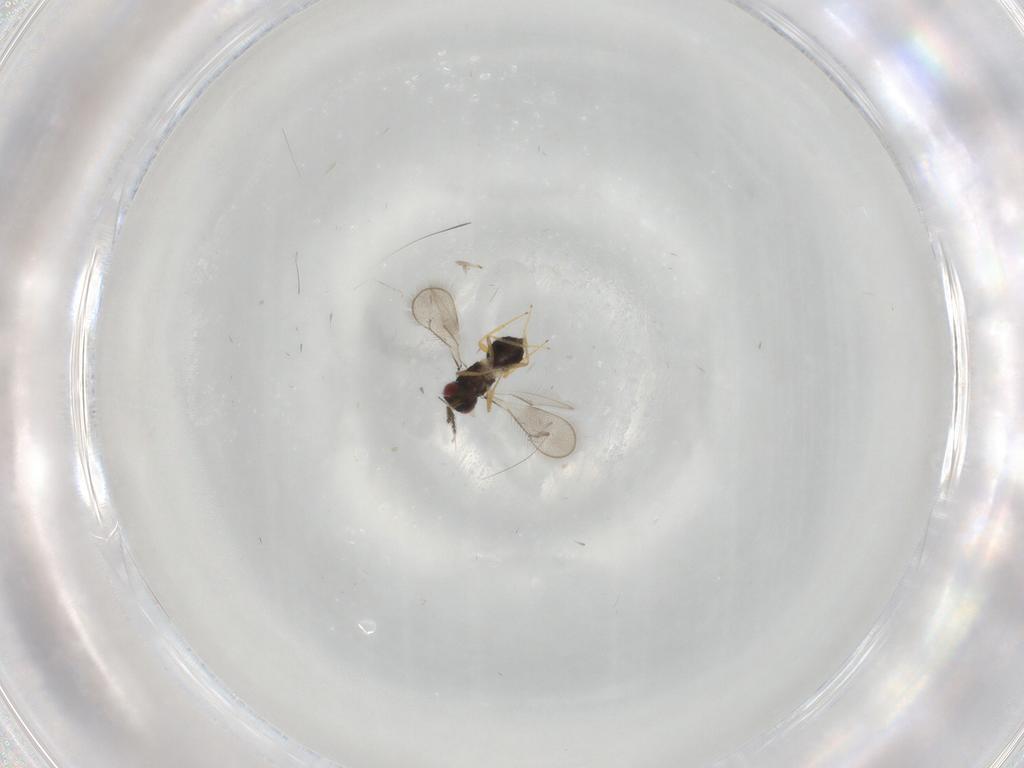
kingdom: Animalia
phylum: Arthropoda
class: Insecta
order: Hymenoptera
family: Eulophidae
